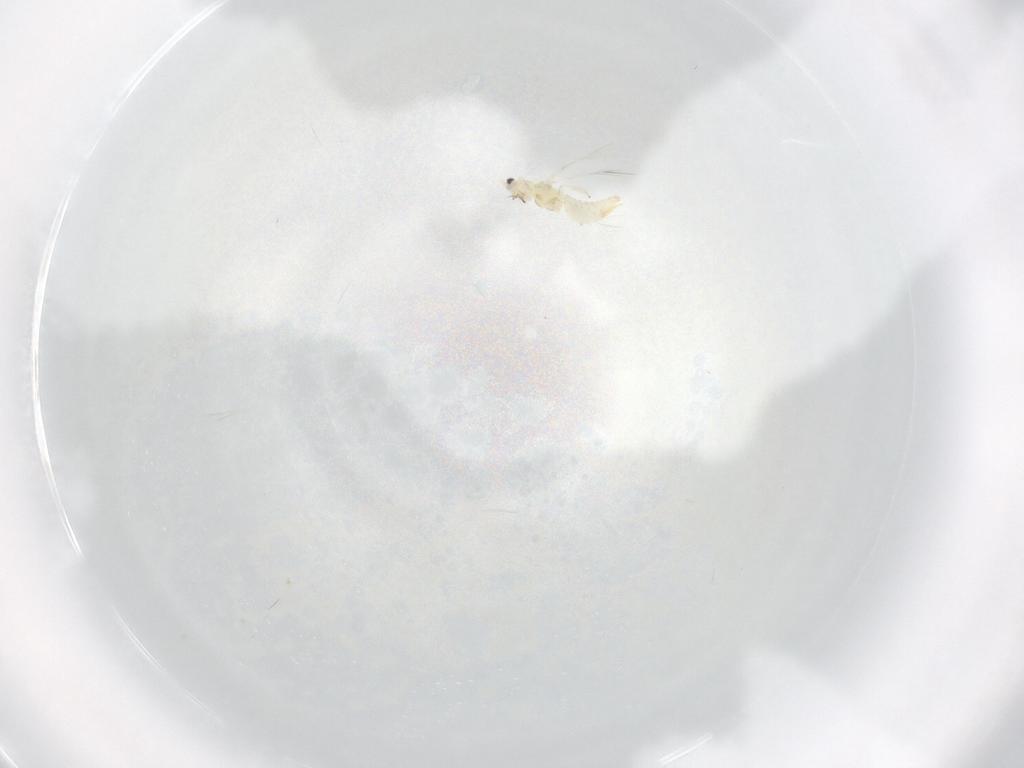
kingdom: Animalia
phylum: Arthropoda
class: Insecta
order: Thysanoptera
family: Thripidae
